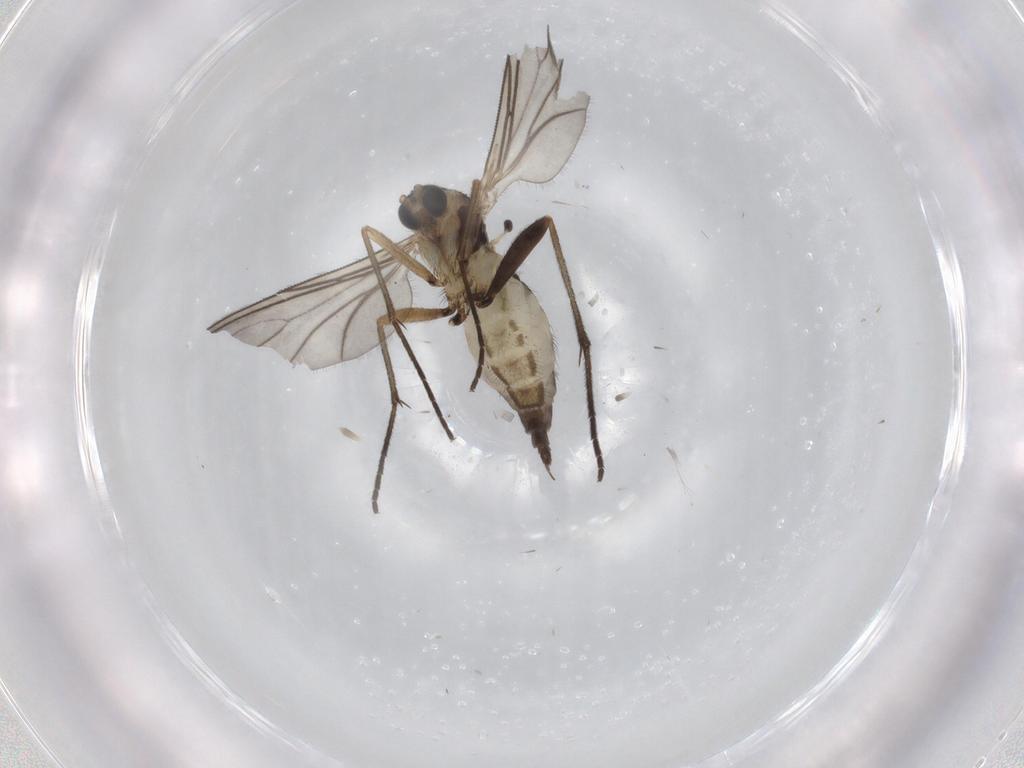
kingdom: Animalia
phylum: Arthropoda
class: Insecta
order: Diptera
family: Sciaridae
